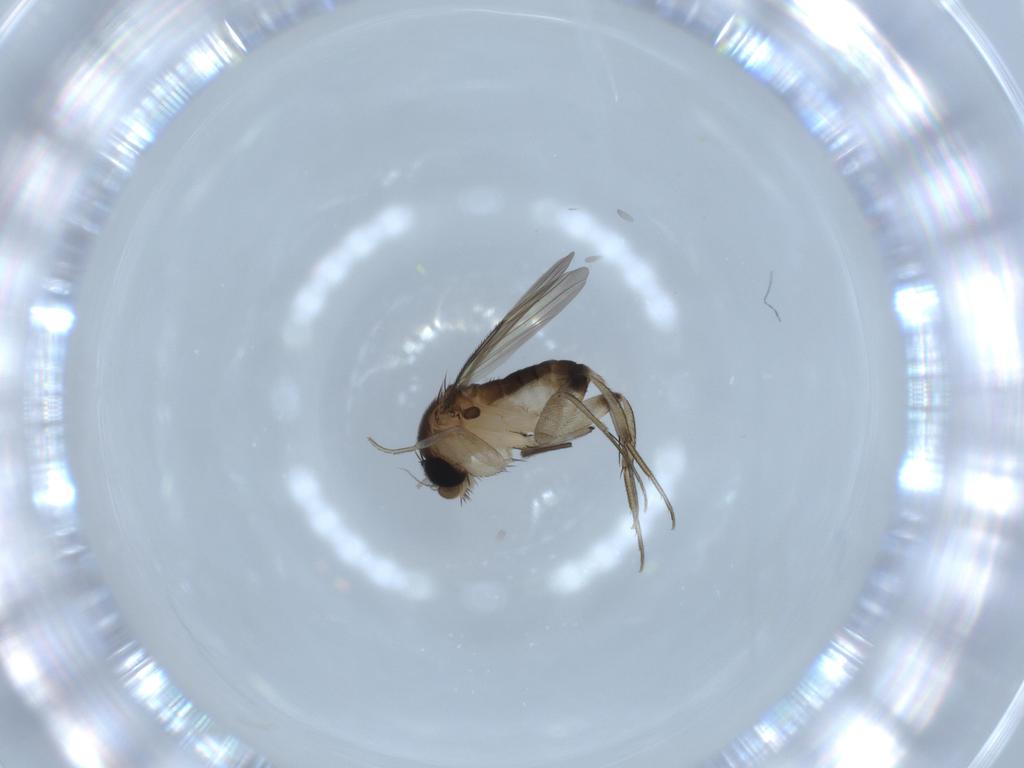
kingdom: Animalia
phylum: Arthropoda
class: Insecta
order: Diptera
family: Phoridae
